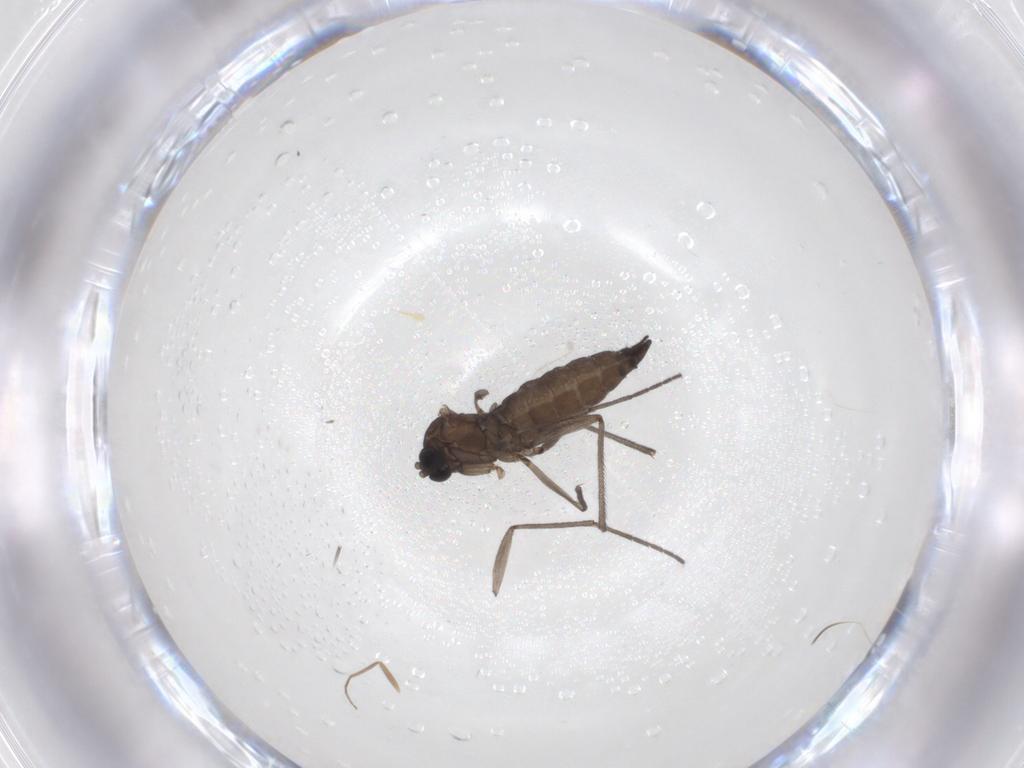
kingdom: Animalia
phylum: Arthropoda
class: Insecta
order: Diptera
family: Sciaridae
